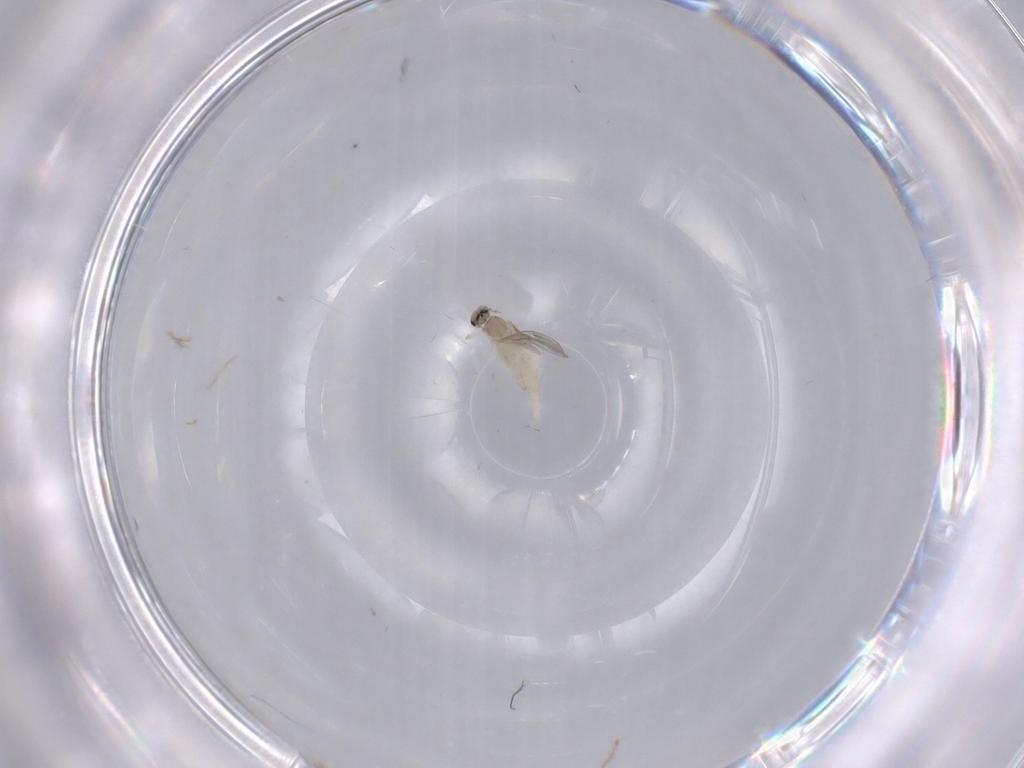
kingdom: Animalia
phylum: Arthropoda
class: Insecta
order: Diptera
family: Cecidomyiidae
